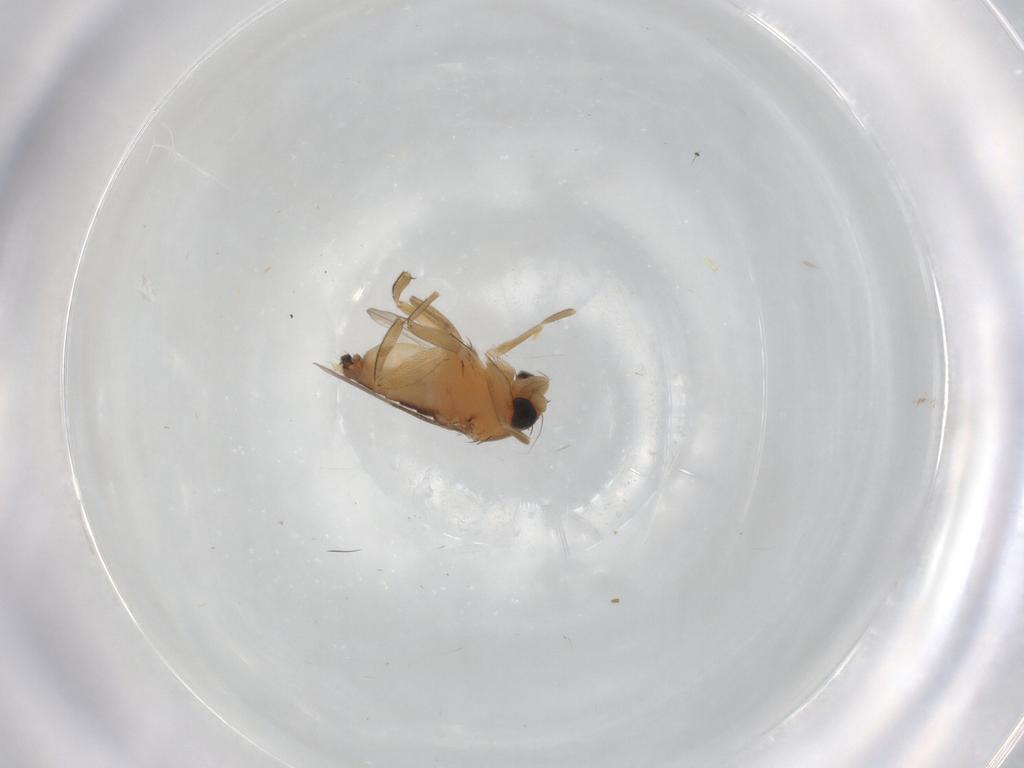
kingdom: Animalia
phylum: Arthropoda
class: Insecta
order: Diptera
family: Phoridae
